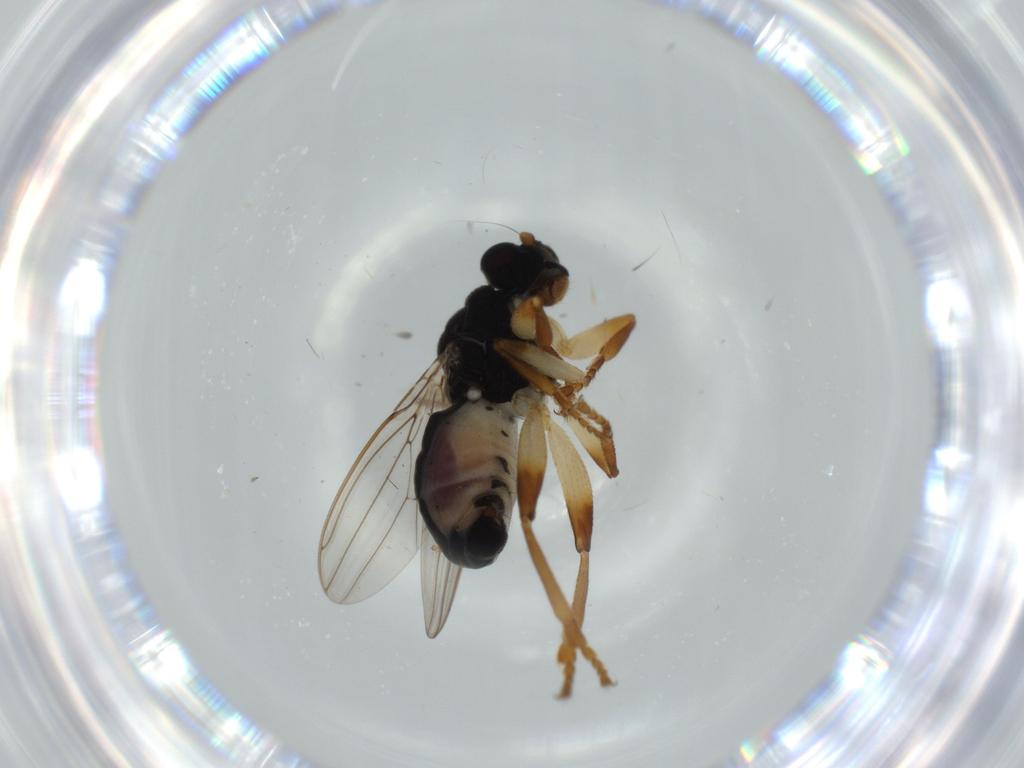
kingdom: Animalia
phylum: Arthropoda
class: Insecta
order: Diptera
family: Sphaeroceridae
